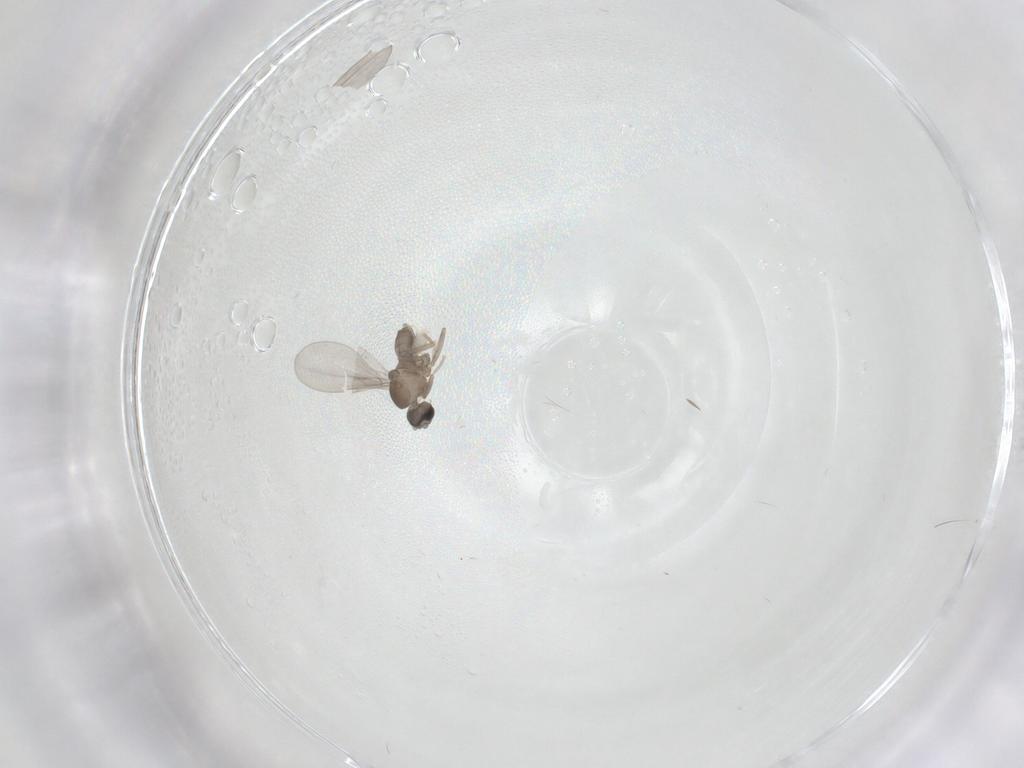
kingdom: Animalia
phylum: Arthropoda
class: Insecta
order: Diptera
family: Cecidomyiidae
